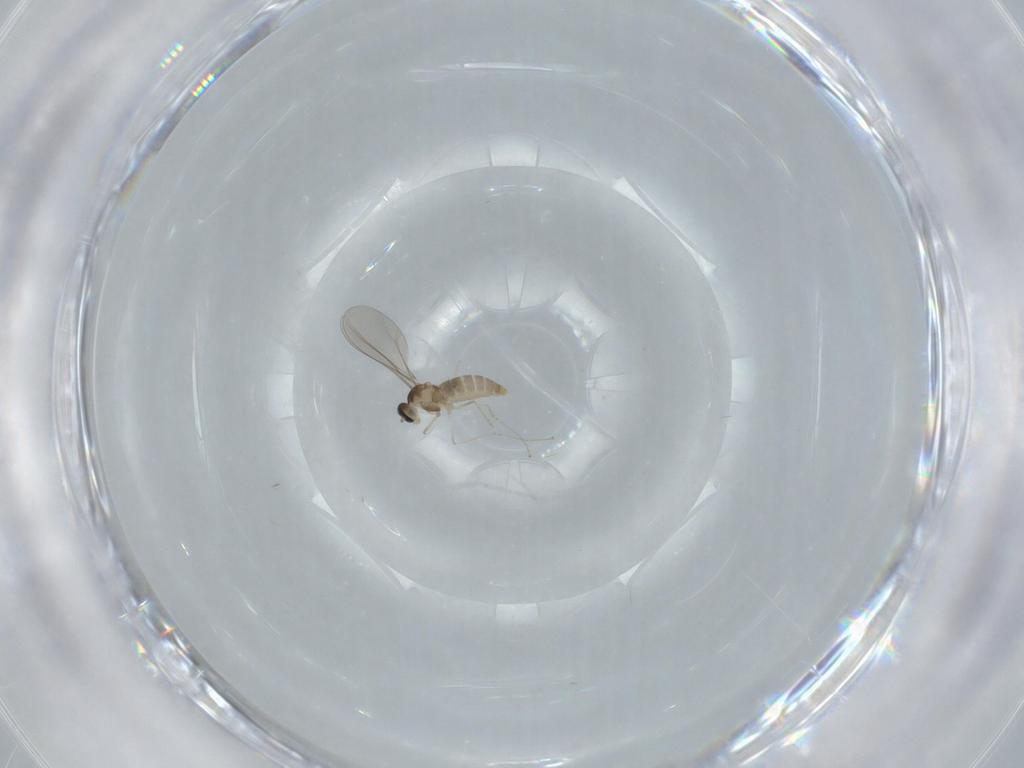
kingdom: Animalia
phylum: Arthropoda
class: Insecta
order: Diptera
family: Cecidomyiidae
